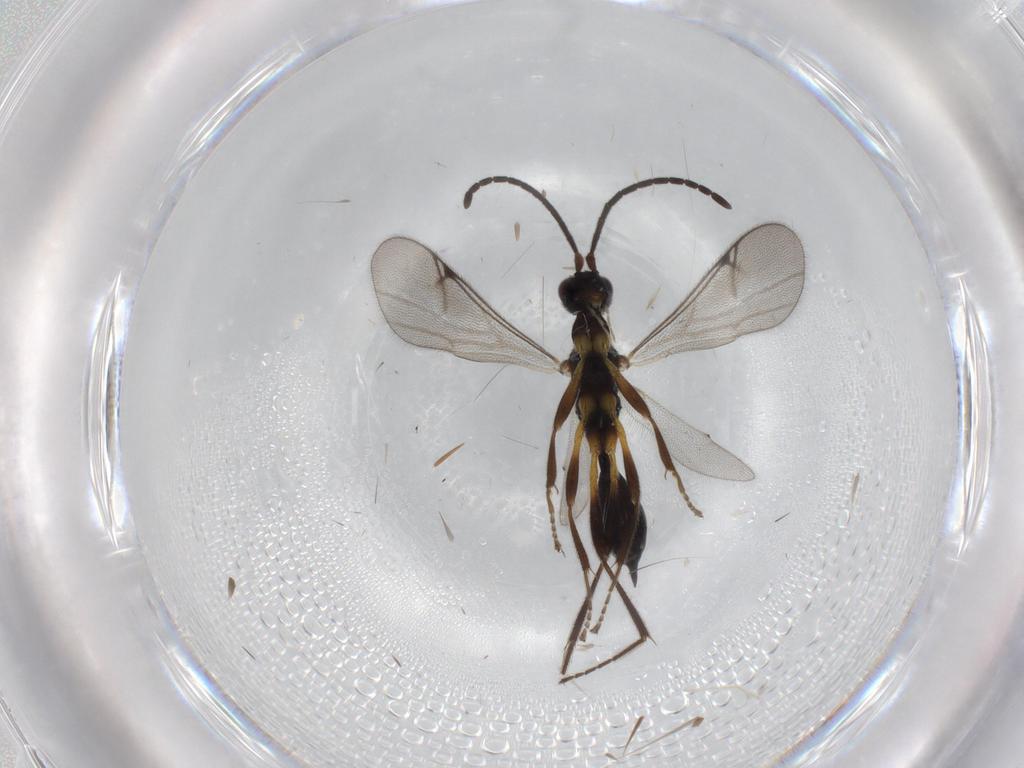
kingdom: Animalia
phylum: Arthropoda
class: Insecta
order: Hymenoptera
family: Proctotrupidae
